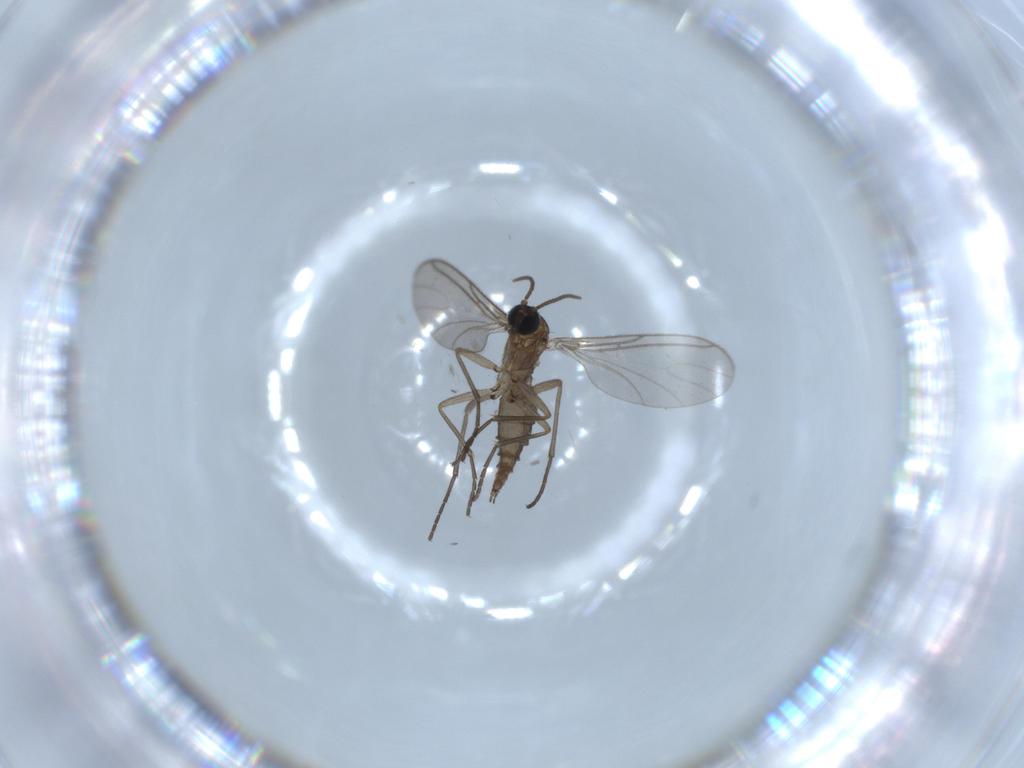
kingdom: Animalia
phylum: Arthropoda
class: Insecta
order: Diptera
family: Sciaridae
